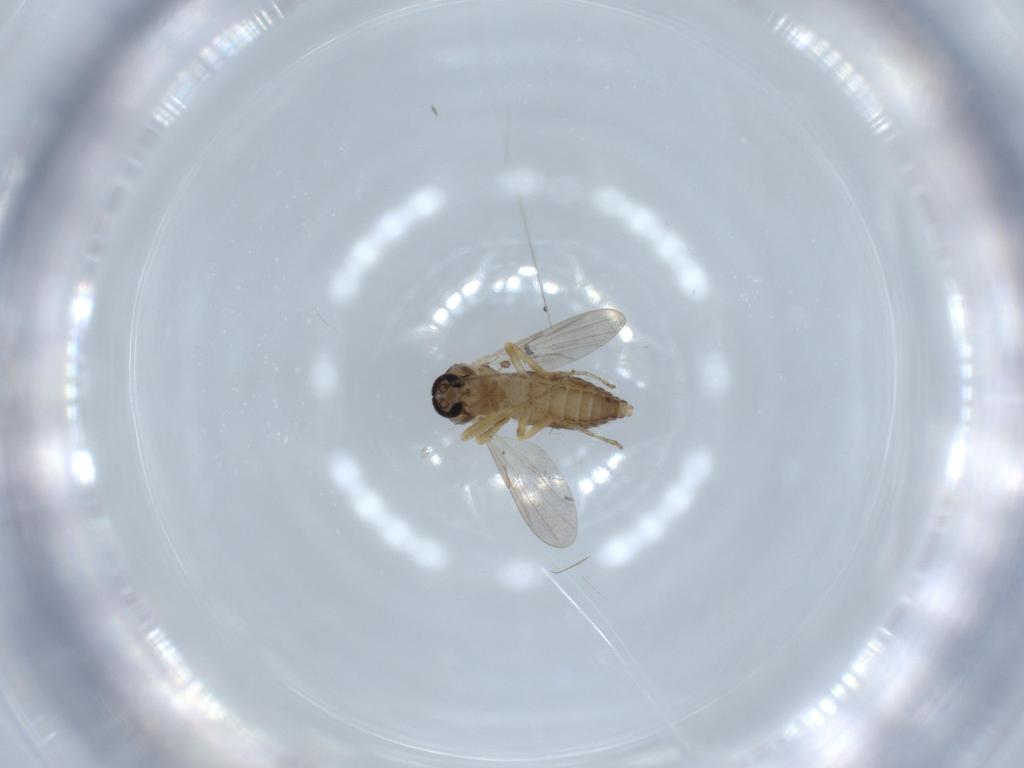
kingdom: Animalia
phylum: Arthropoda
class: Insecta
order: Diptera
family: Ceratopogonidae
